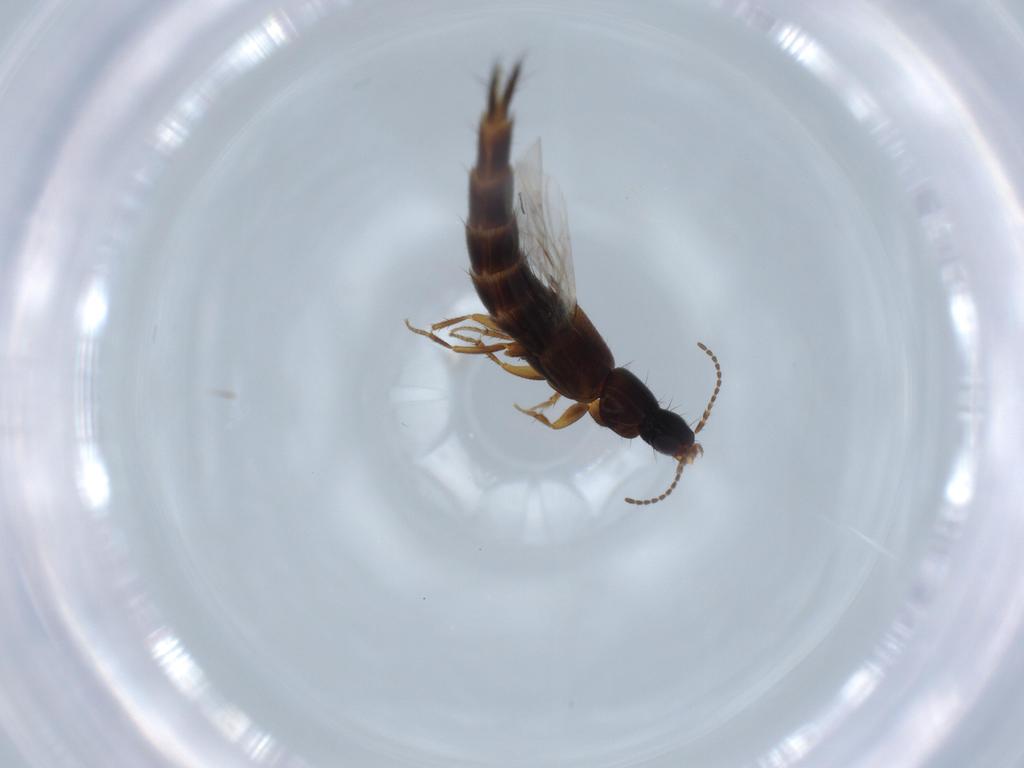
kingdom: Animalia
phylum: Arthropoda
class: Insecta
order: Coleoptera
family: Staphylinidae
